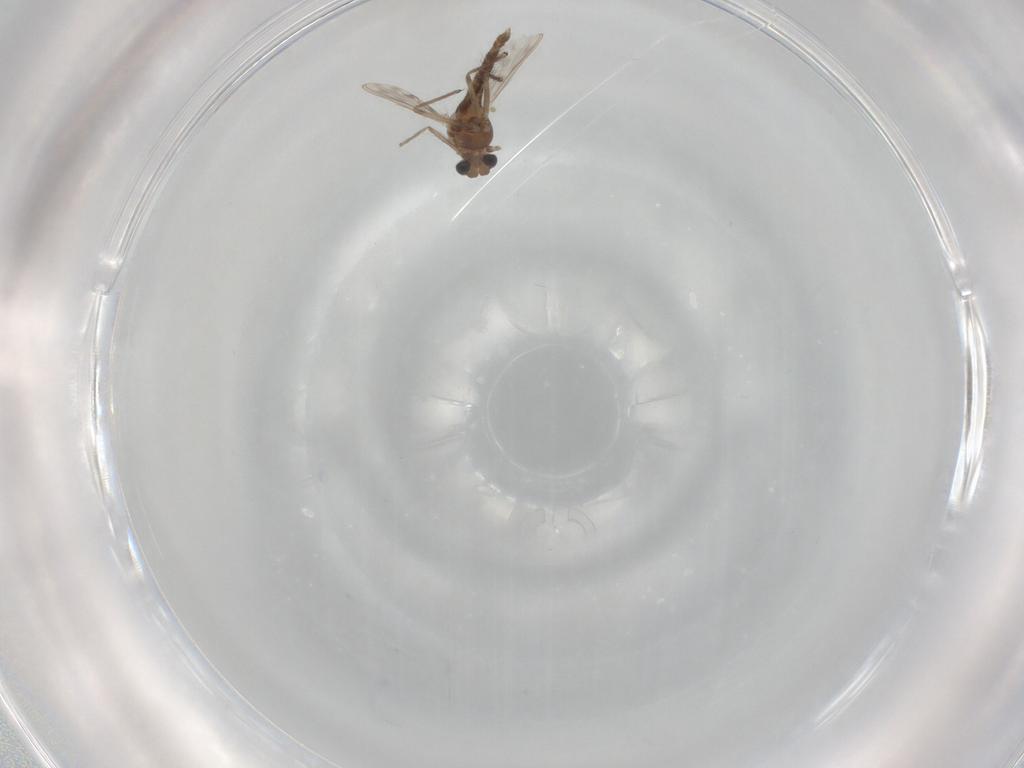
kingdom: Animalia
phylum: Arthropoda
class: Insecta
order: Diptera
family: Chironomidae
